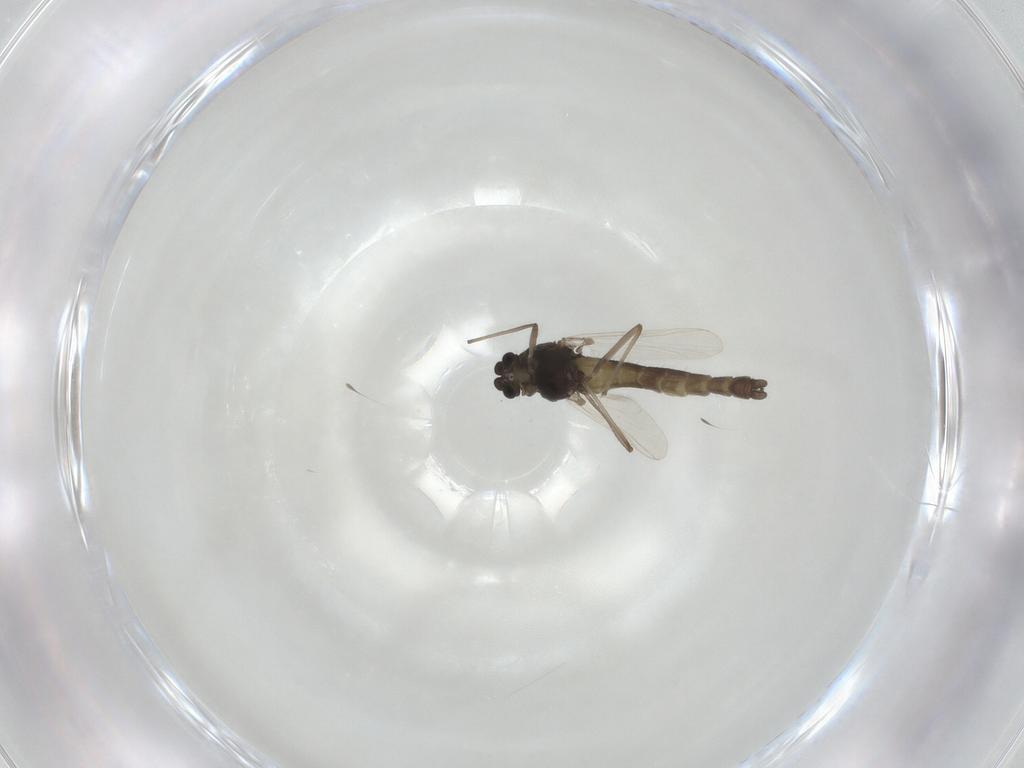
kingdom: Animalia
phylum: Arthropoda
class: Insecta
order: Diptera
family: Chironomidae
